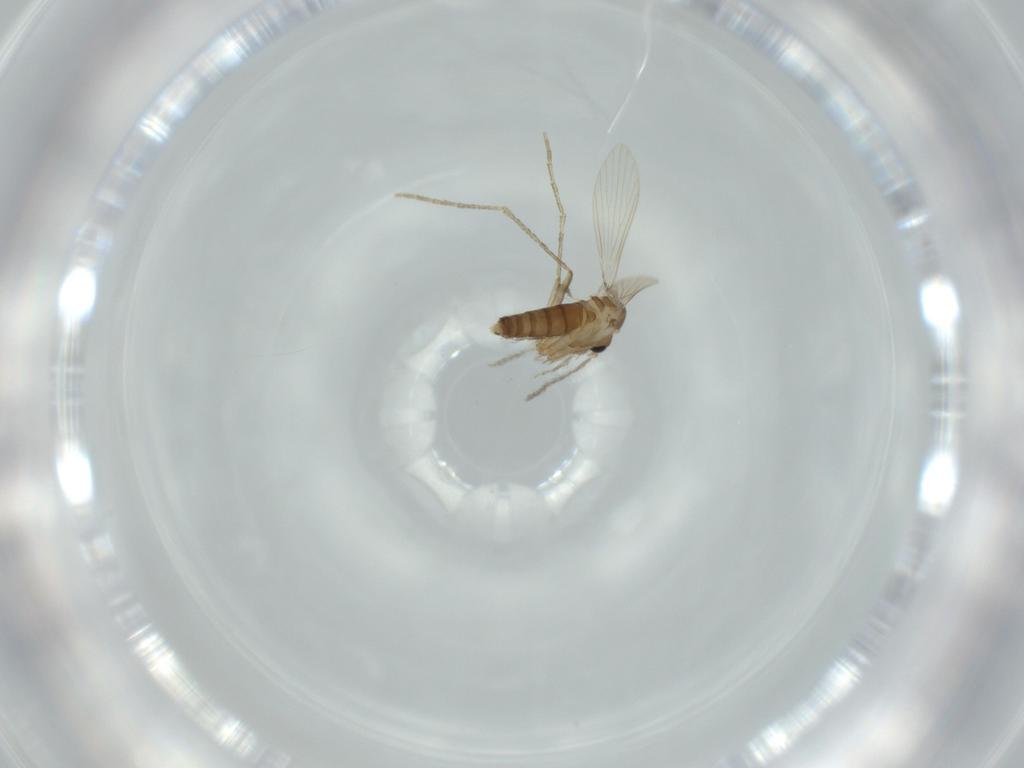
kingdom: Animalia
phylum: Arthropoda
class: Insecta
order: Diptera
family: Psychodidae
